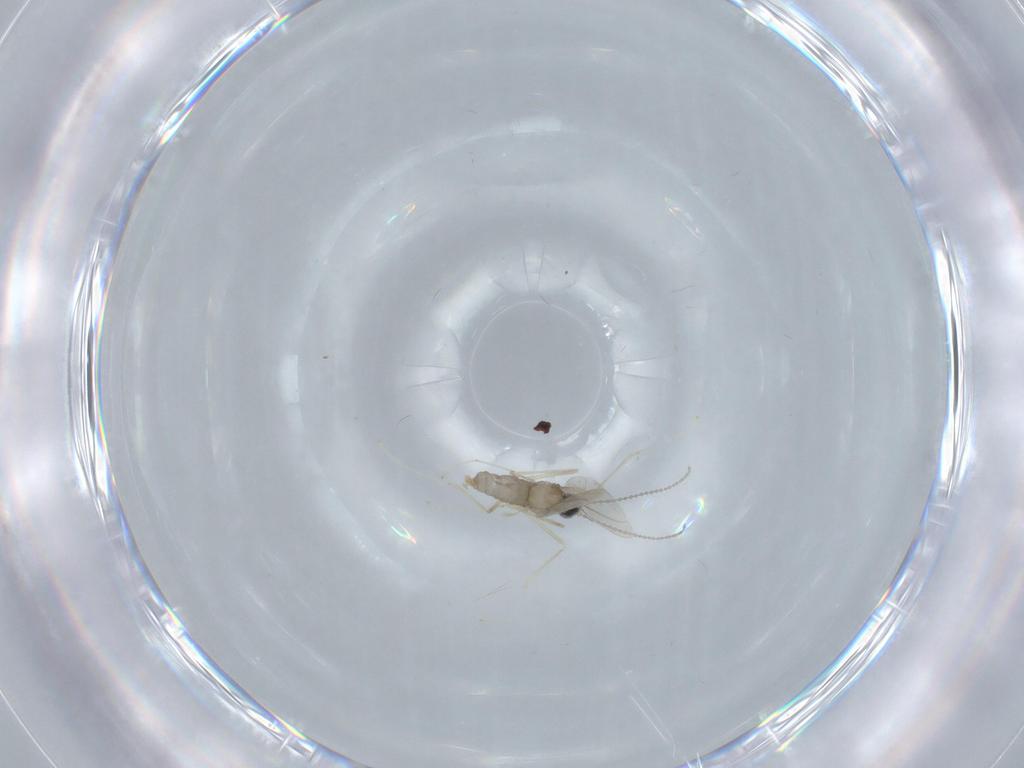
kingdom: Animalia
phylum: Arthropoda
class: Insecta
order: Diptera
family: Cecidomyiidae
